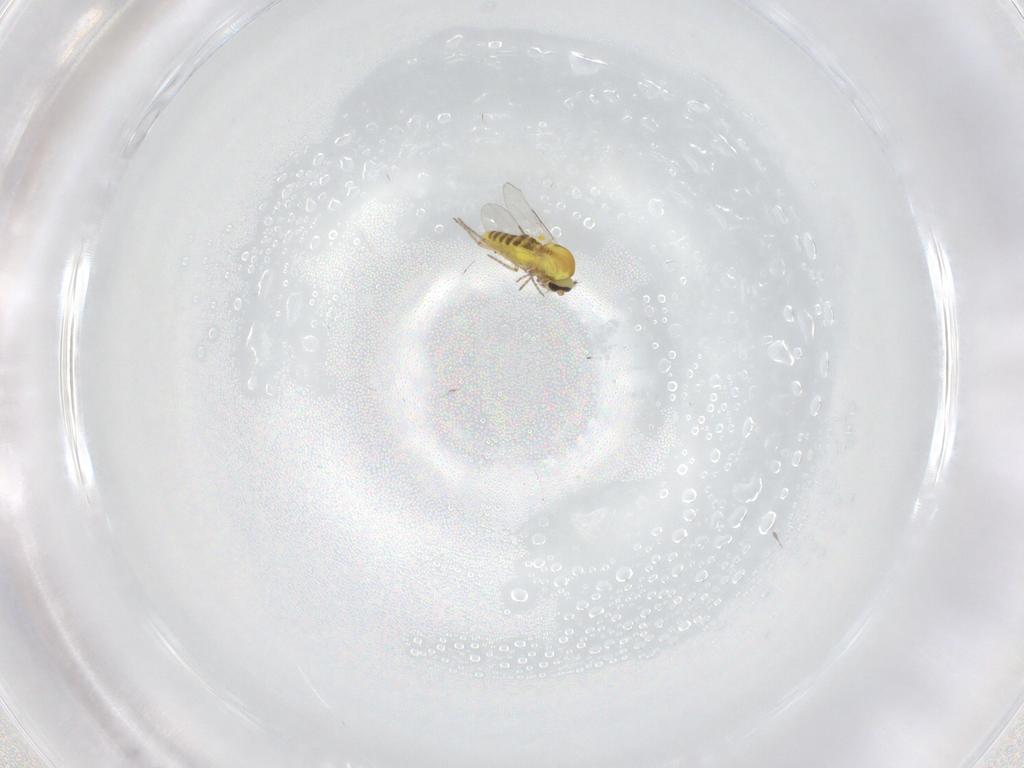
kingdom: Animalia
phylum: Arthropoda
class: Insecta
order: Diptera
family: Ceratopogonidae
